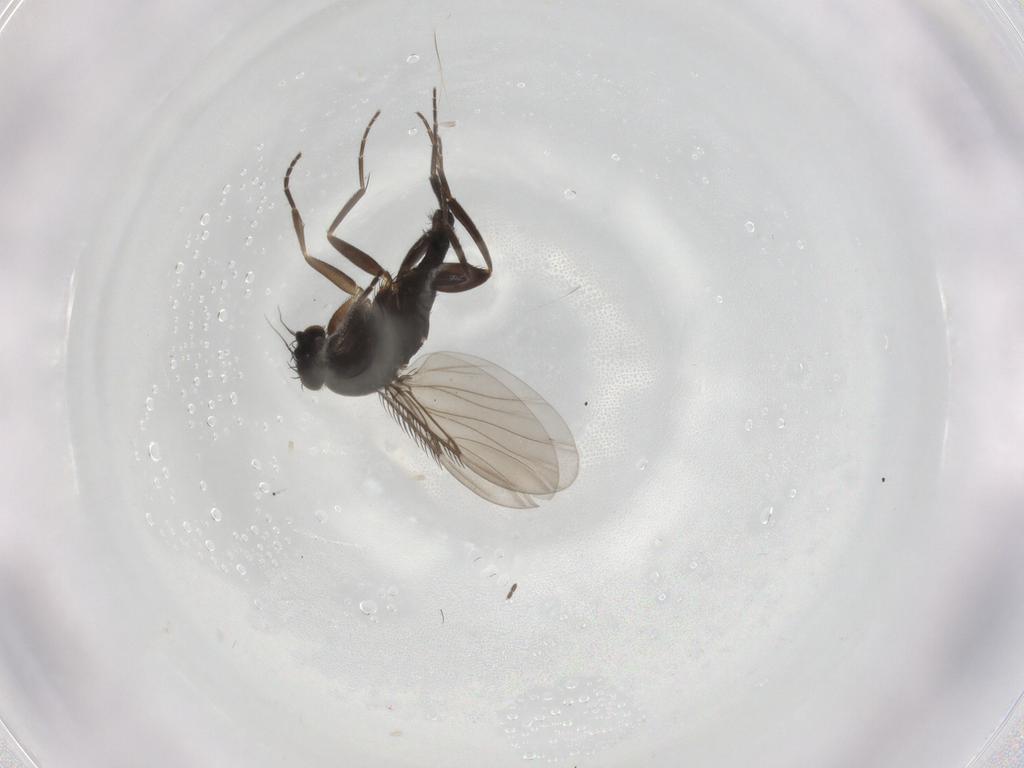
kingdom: Animalia
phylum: Arthropoda
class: Insecta
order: Diptera
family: Phoridae
